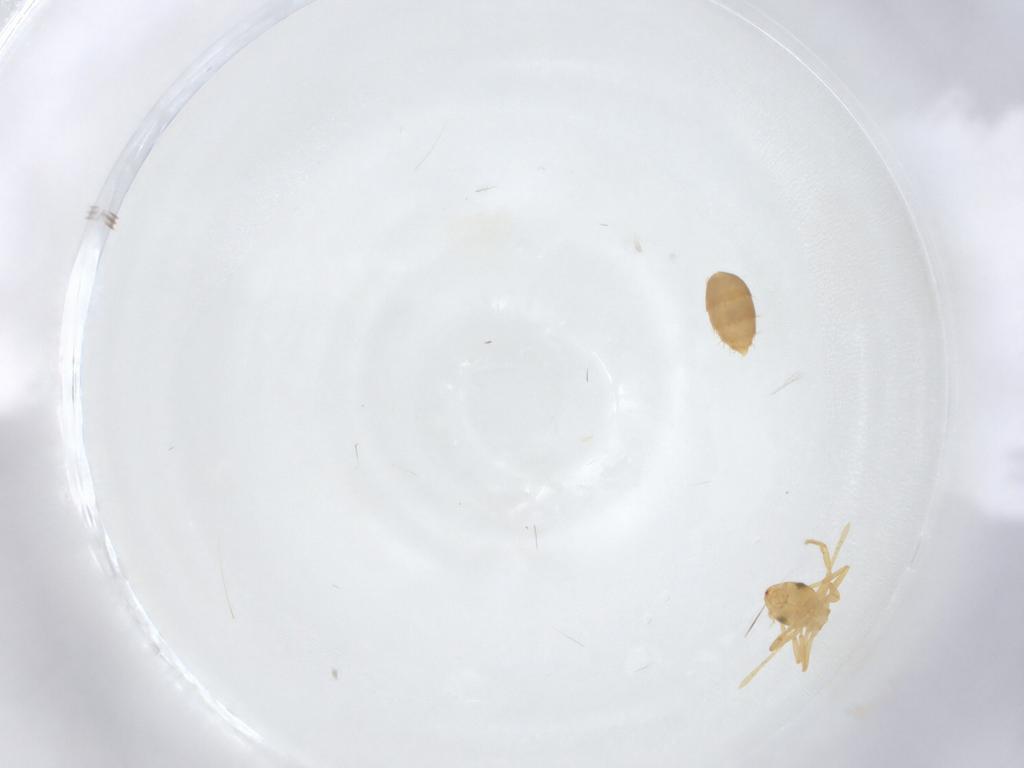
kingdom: Animalia
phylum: Arthropoda
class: Insecta
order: Hymenoptera
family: Formicidae
